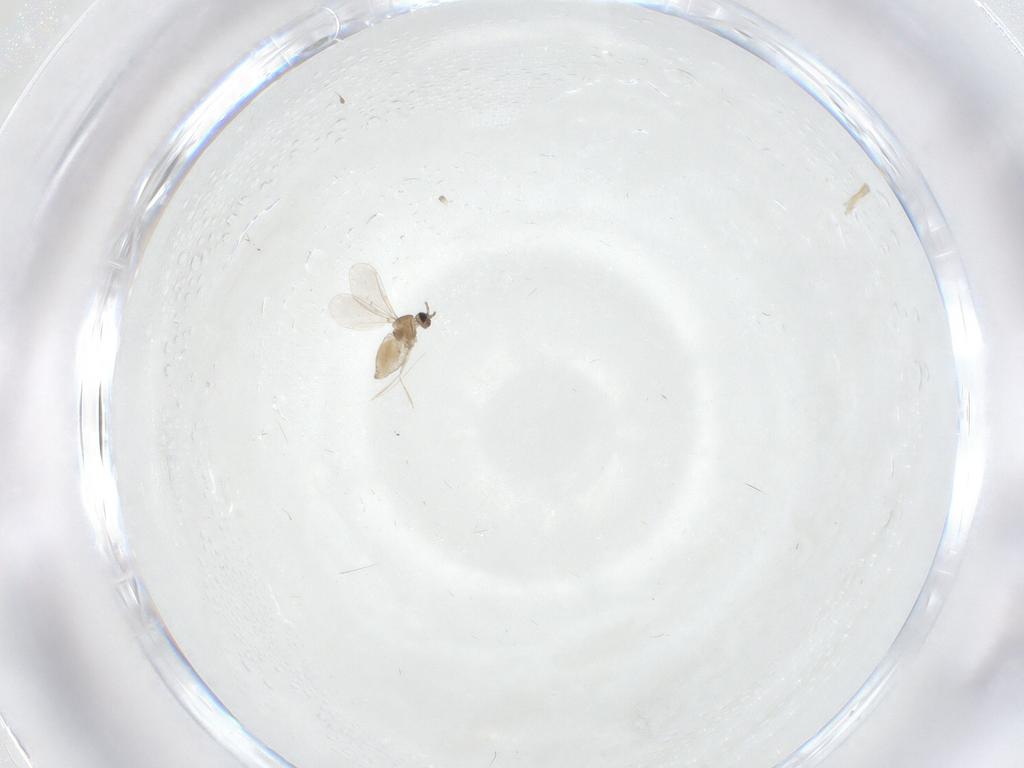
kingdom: Animalia
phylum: Arthropoda
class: Insecta
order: Diptera
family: Cecidomyiidae
